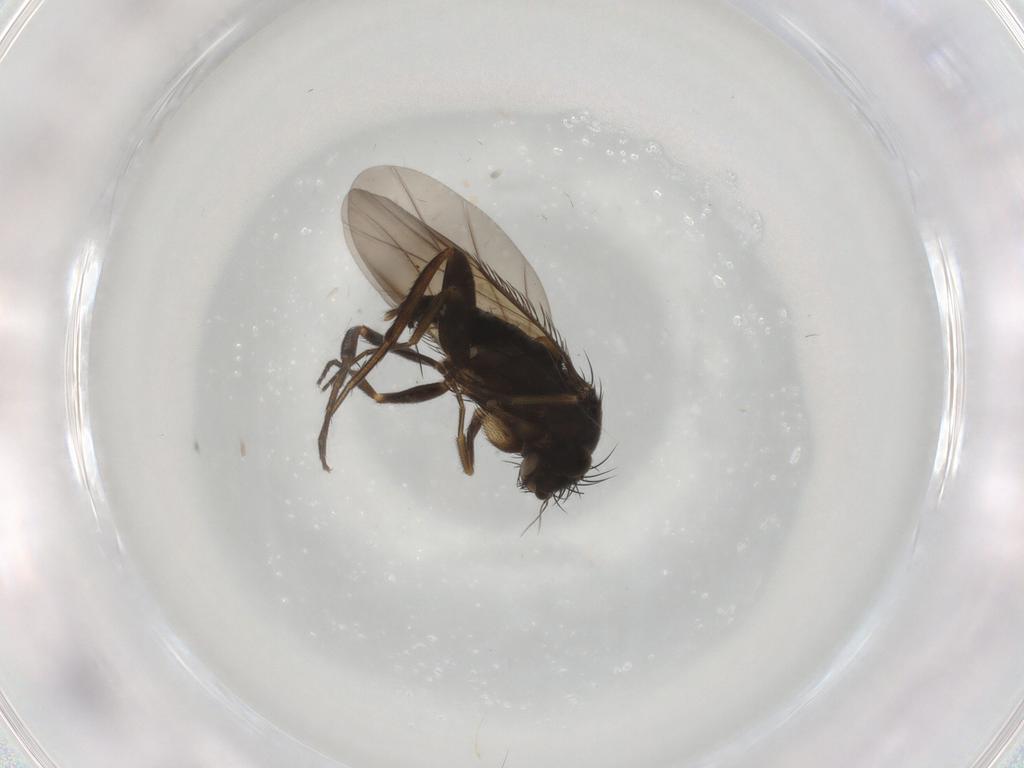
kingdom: Animalia
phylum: Arthropoda
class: Insecta
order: Diptera
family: Phoridae
